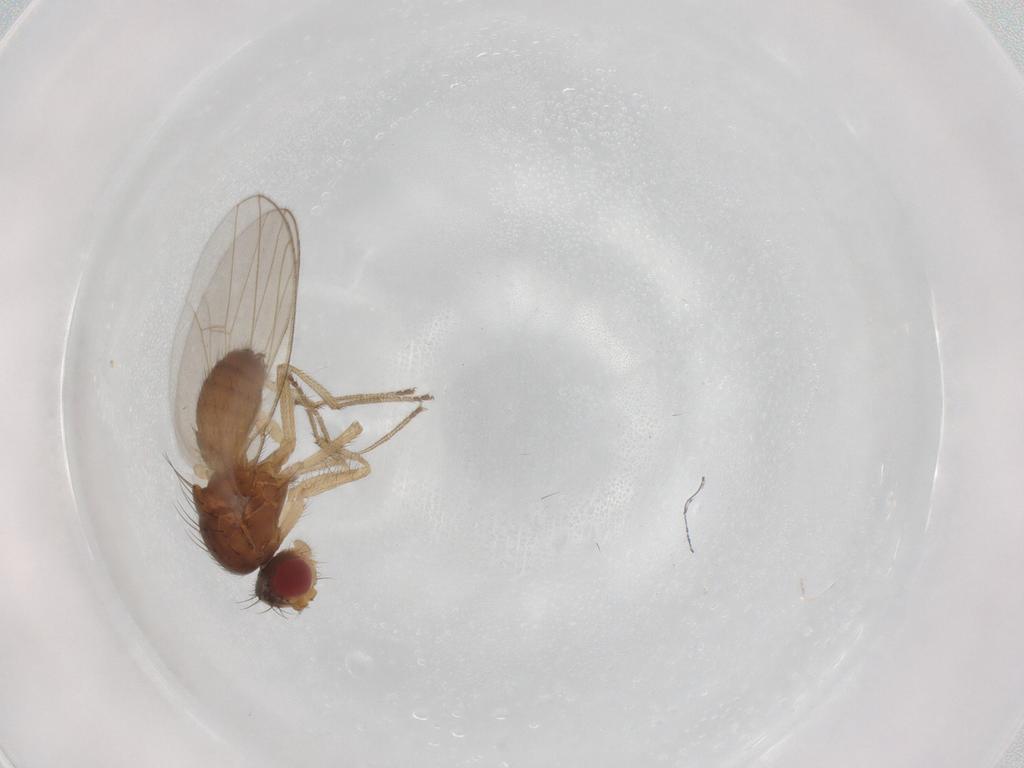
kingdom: Animalia
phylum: Arthropoda
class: Insecta
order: Diptera
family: Drosophilidae
